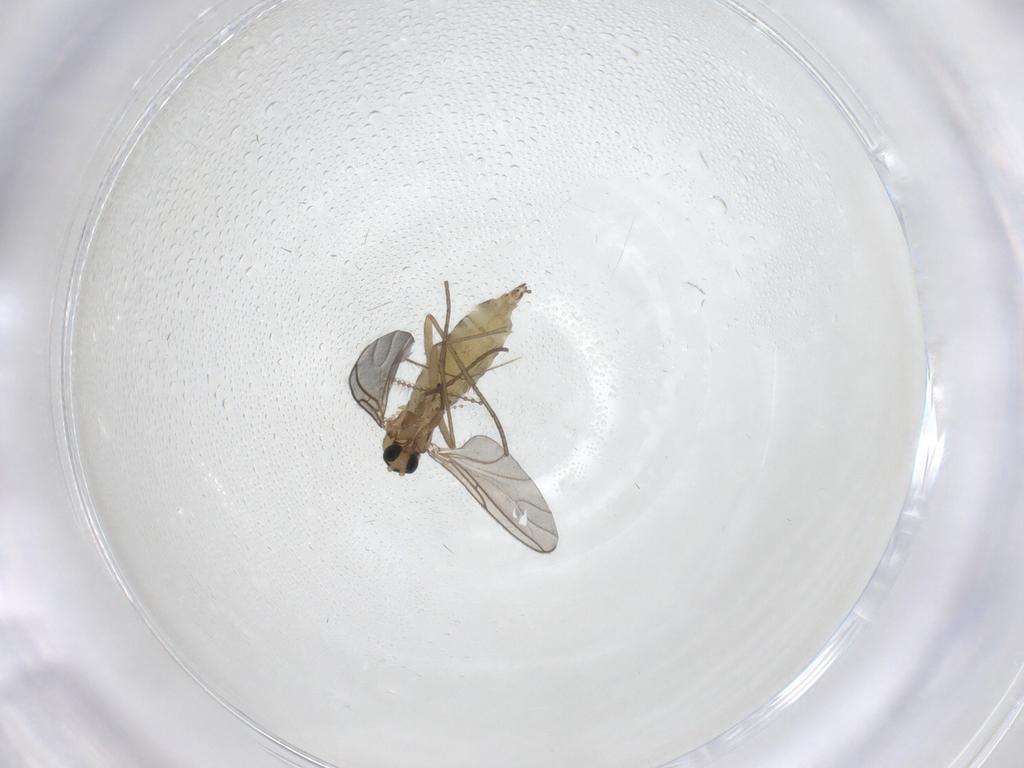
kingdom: Animalia
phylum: Arthropoda
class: Insecta
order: Diptera
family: Sciaridae
